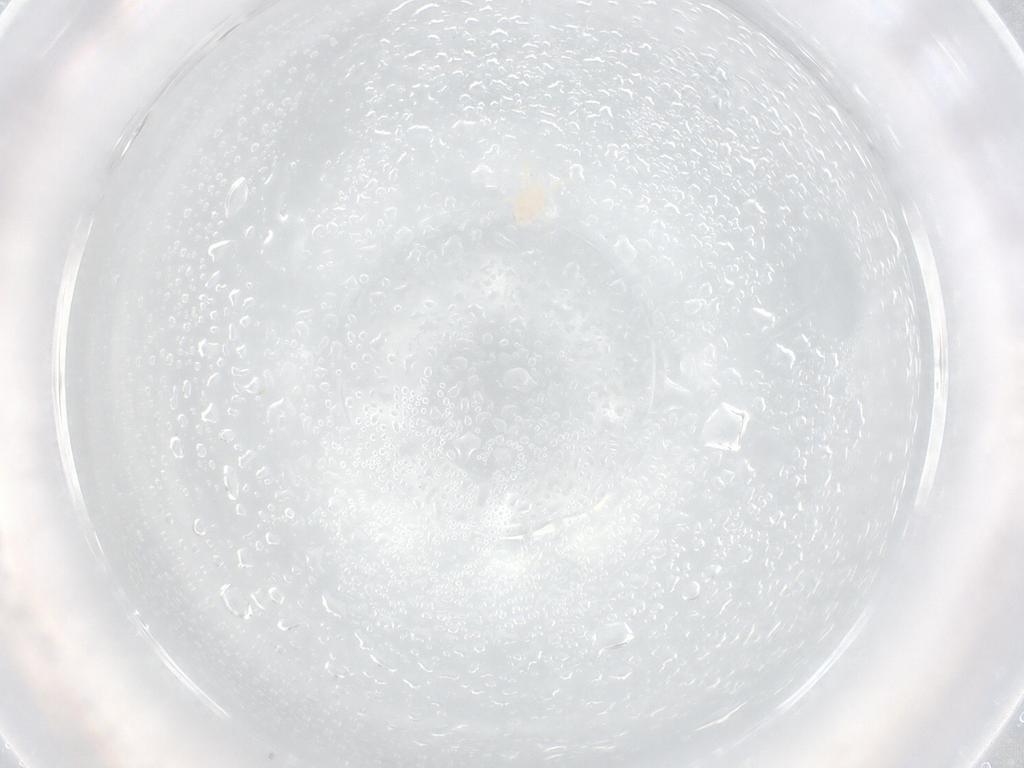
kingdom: Animalia
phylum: Arthropoda
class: Arachnida
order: Mesostigmata
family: Phytoseiidae
